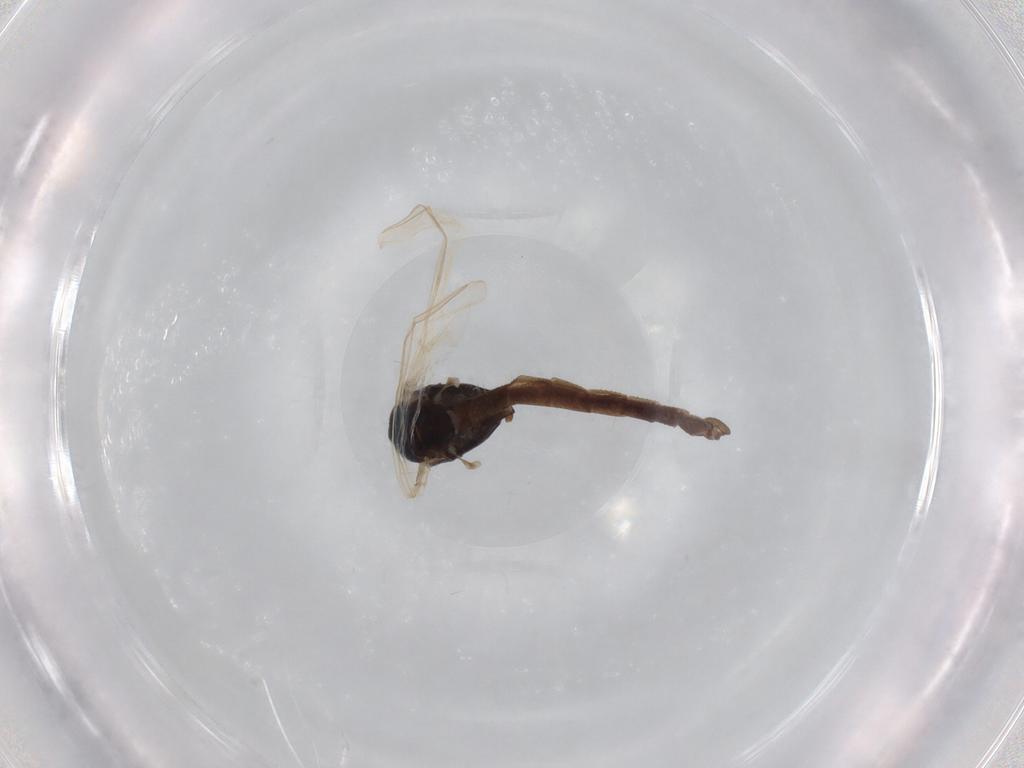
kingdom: Animalia
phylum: Arthropoda
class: Insecta
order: Diptera
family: Chironomidae
